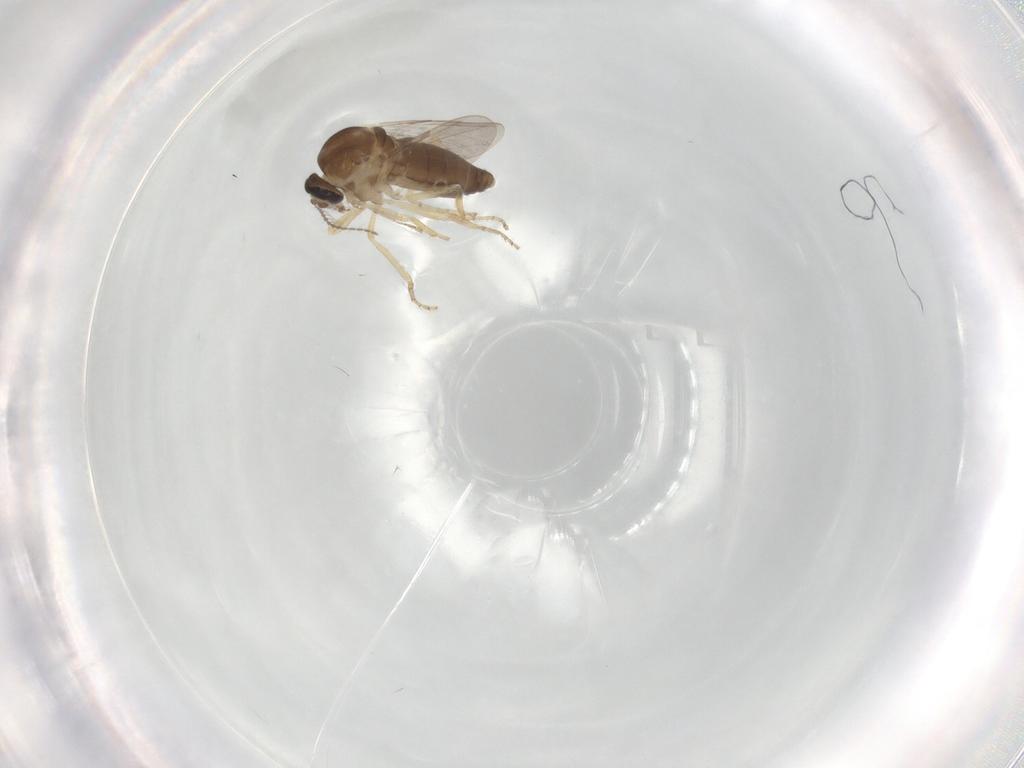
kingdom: Animalia
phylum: Arthropoda
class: Insecta
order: Diptera
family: Ceratopogonidae
